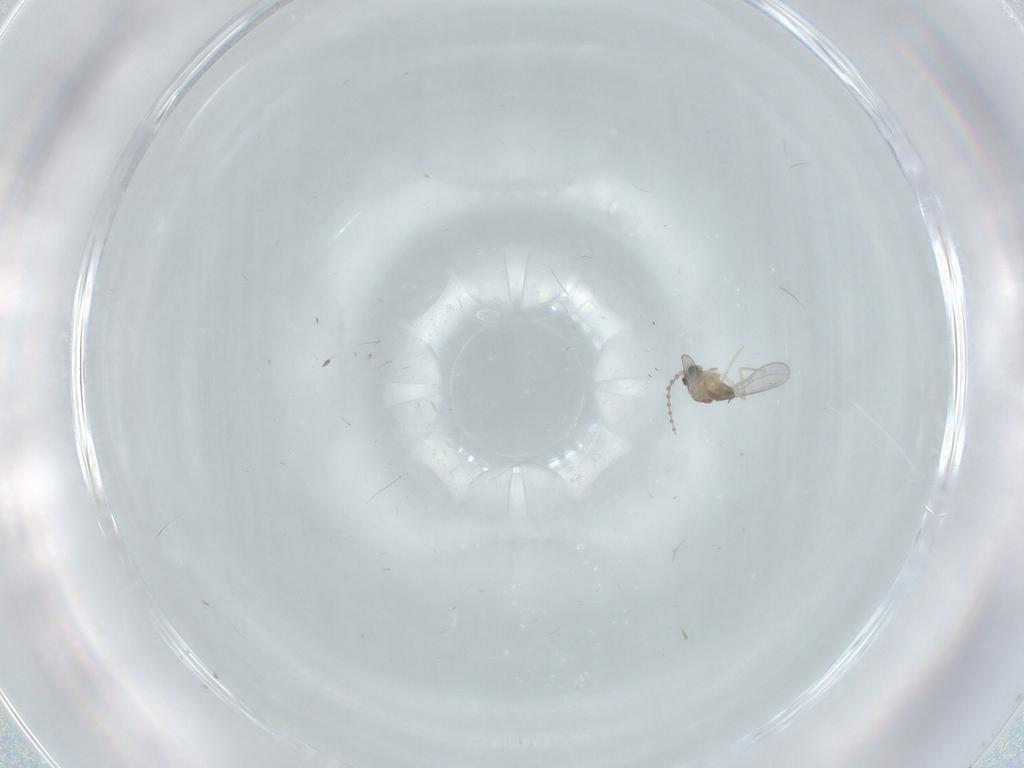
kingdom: Animalia
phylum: Arthropoda
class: Insecta
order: Diptera
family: Cecidomyiidae
